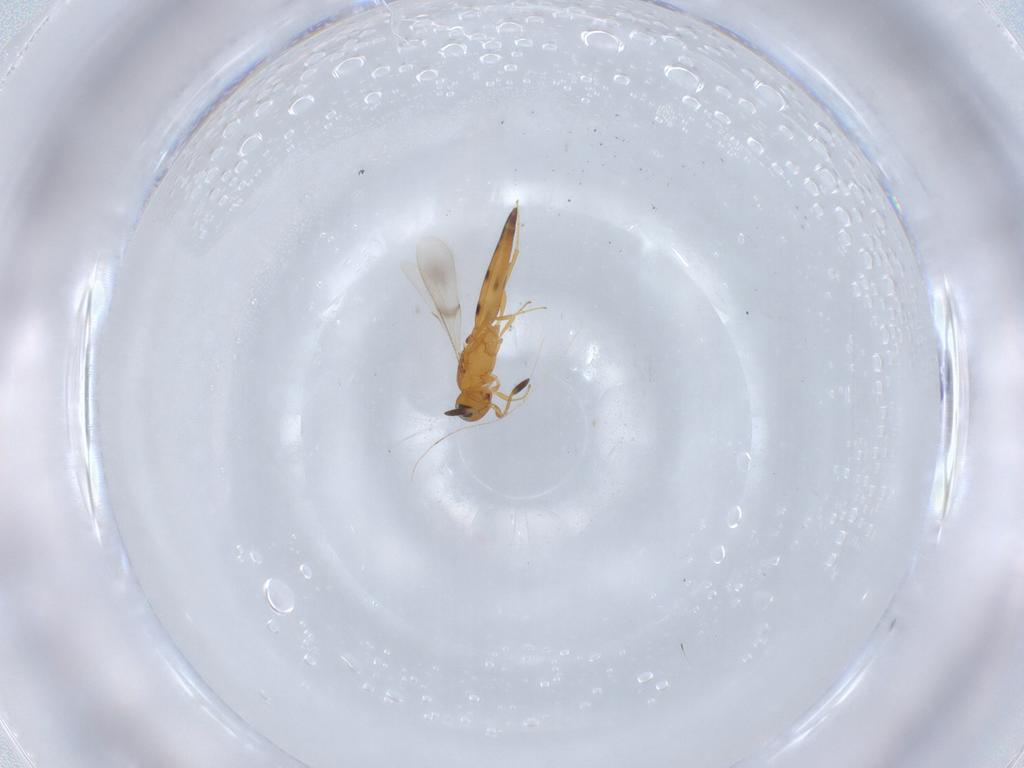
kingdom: Animalia
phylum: Arthropoda
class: Insecta
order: Hymenoptera
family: Scelionidae
